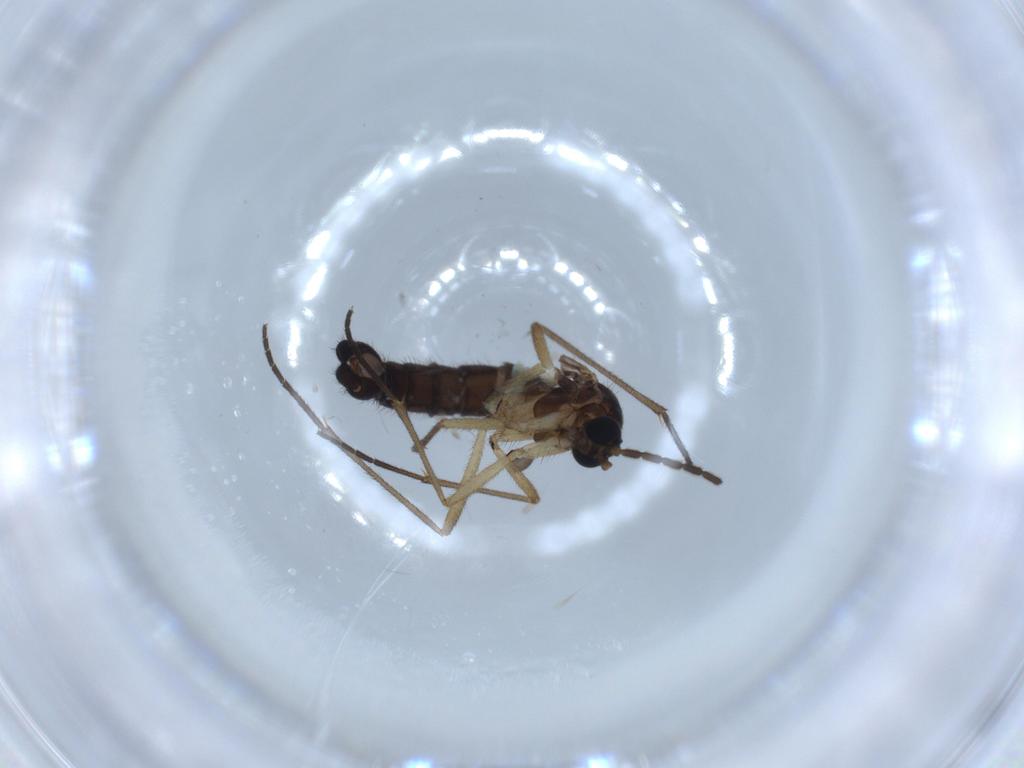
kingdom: Animalia
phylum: Arthropoda
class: Insecta
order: Diptera
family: Sciaridae
